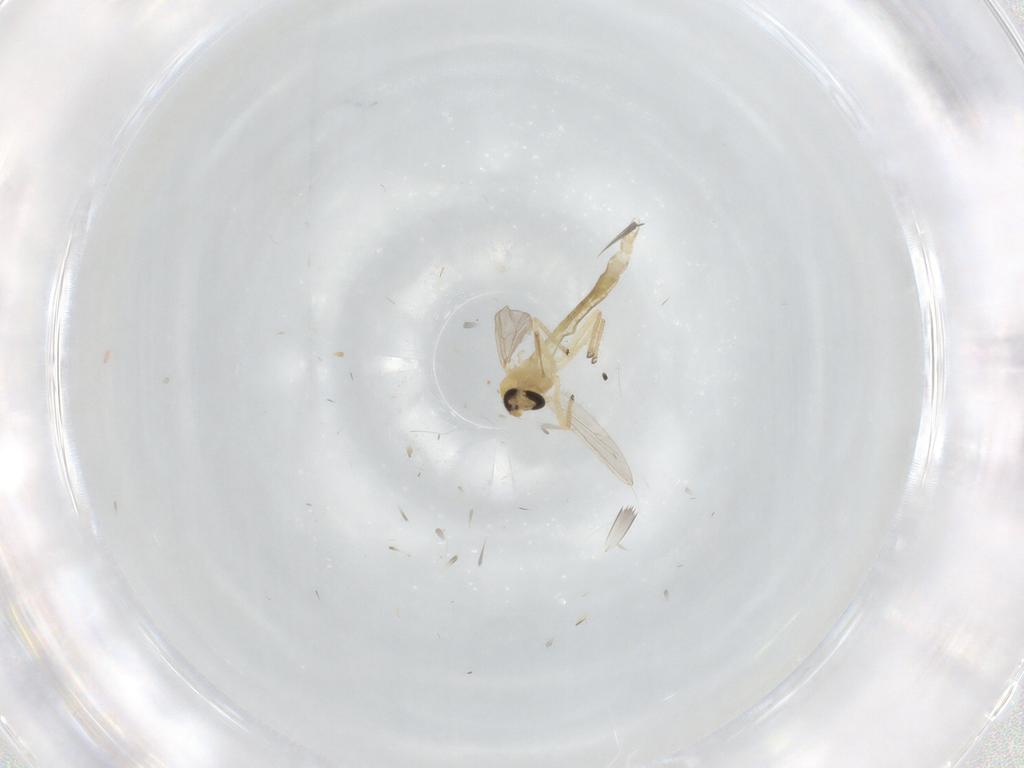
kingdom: Animalia
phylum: Arthropoda
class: Insecta
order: Diptera
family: Chironomidae
